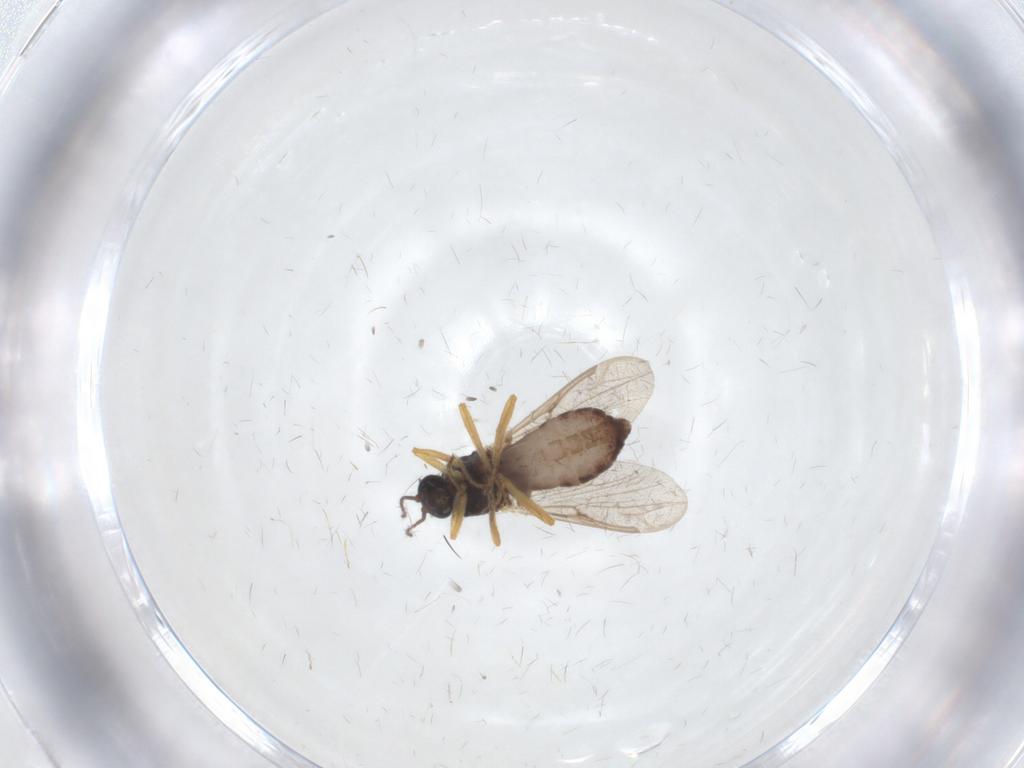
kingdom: Animalia
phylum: Arthropoda
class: Insecta
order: Diptera
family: Ceratopogonidae
